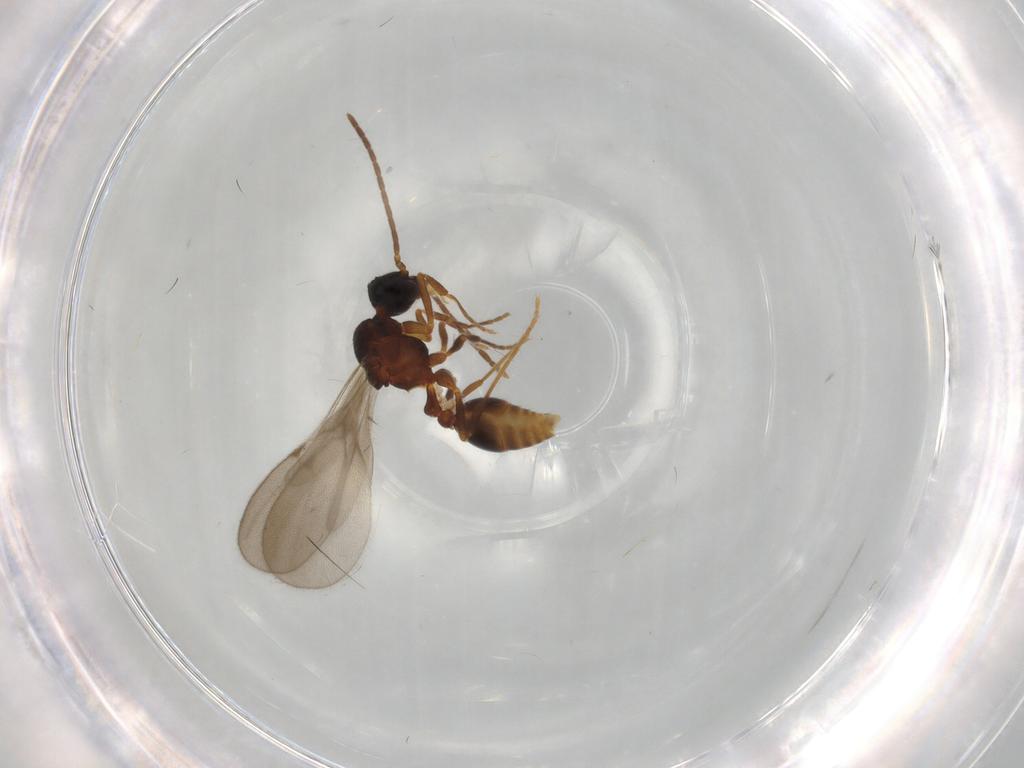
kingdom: Animalia
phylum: Arthropoda
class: Insecta
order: Hymenoptera
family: Formicidae
